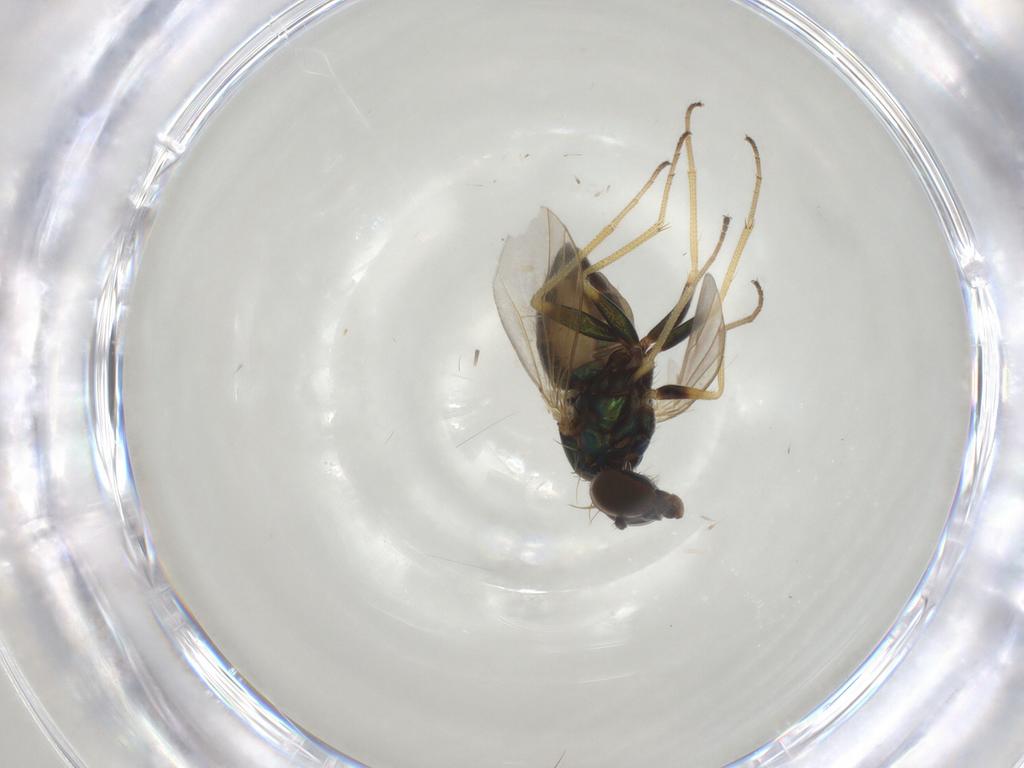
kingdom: Animalia
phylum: Arthropoda
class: Insecta
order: Diptera
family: Dolichopodidae
